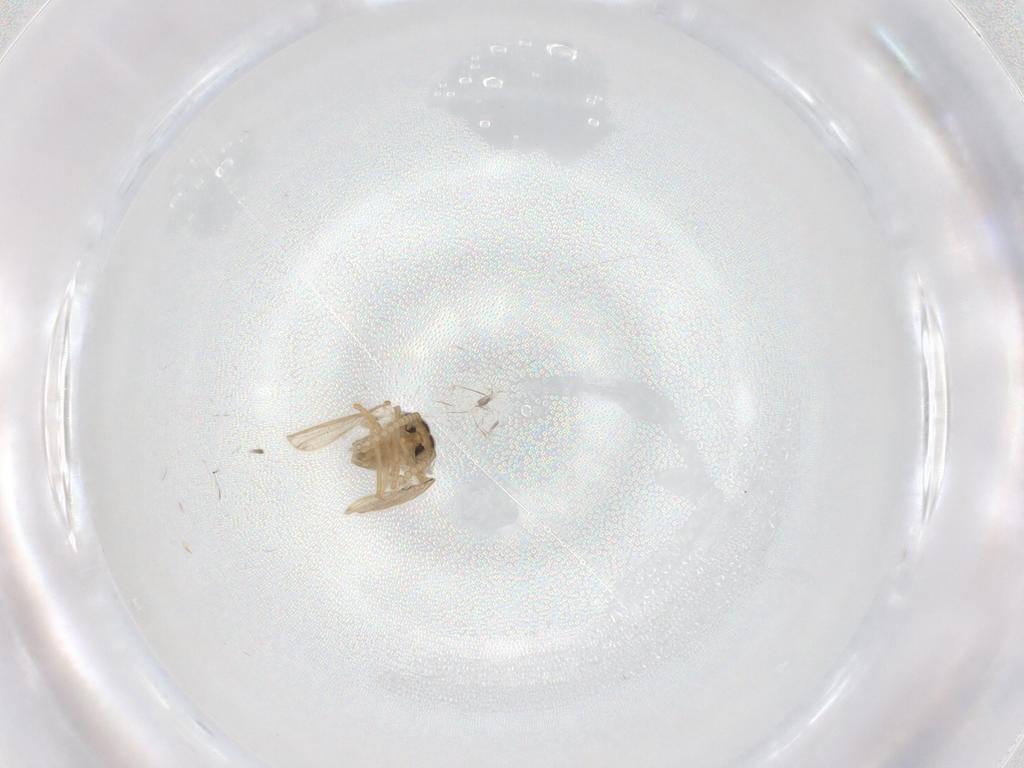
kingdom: Animalia
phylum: Arthropoda
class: Insecta
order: Diptera
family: Psychodidae
